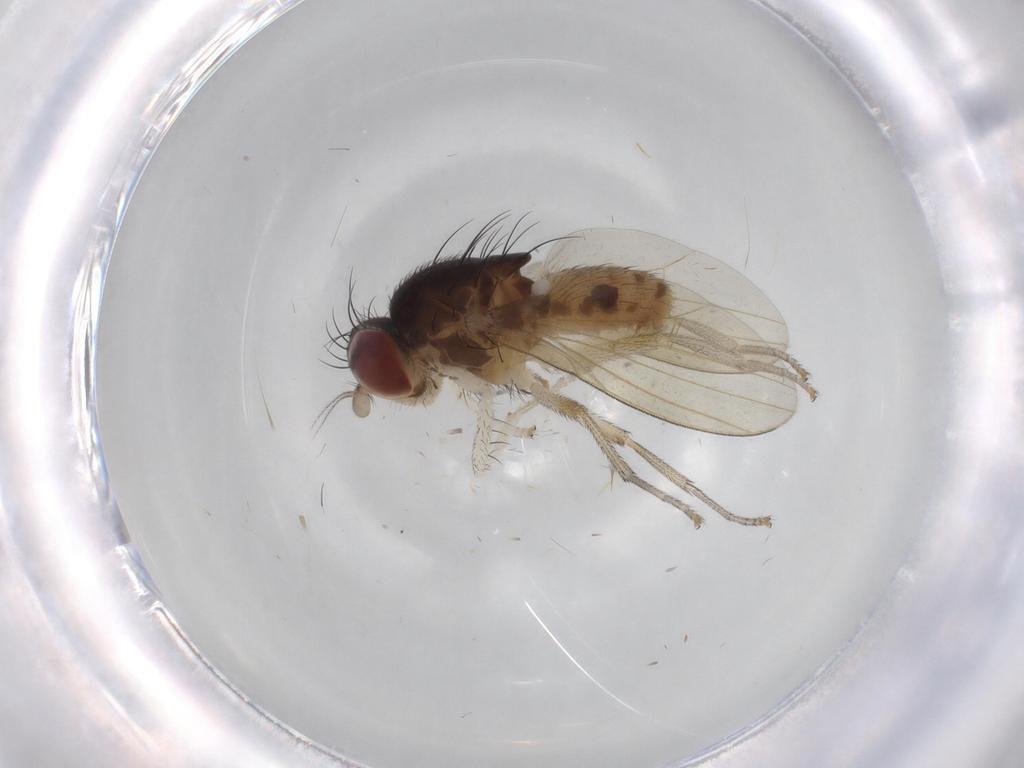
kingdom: Animalia
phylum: Arthropoda
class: Insecta
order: Diptera
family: Lauxaniidae
